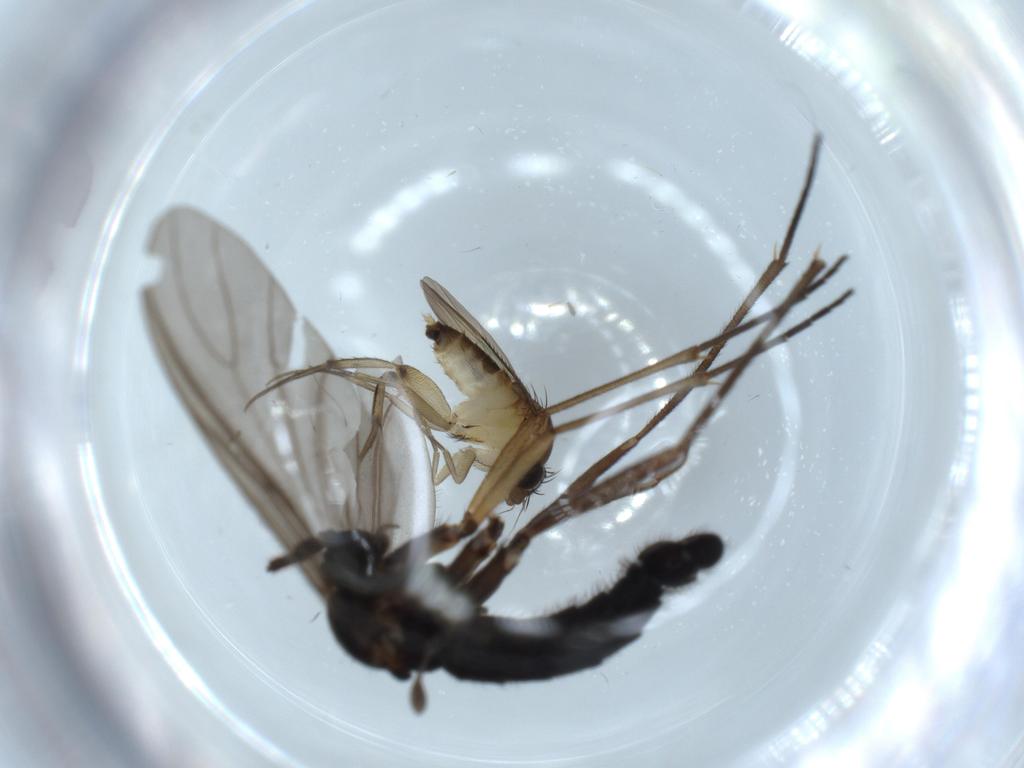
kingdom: Animalia
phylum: Arthropoda
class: Insecta
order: Diptera
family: Sciaridae
